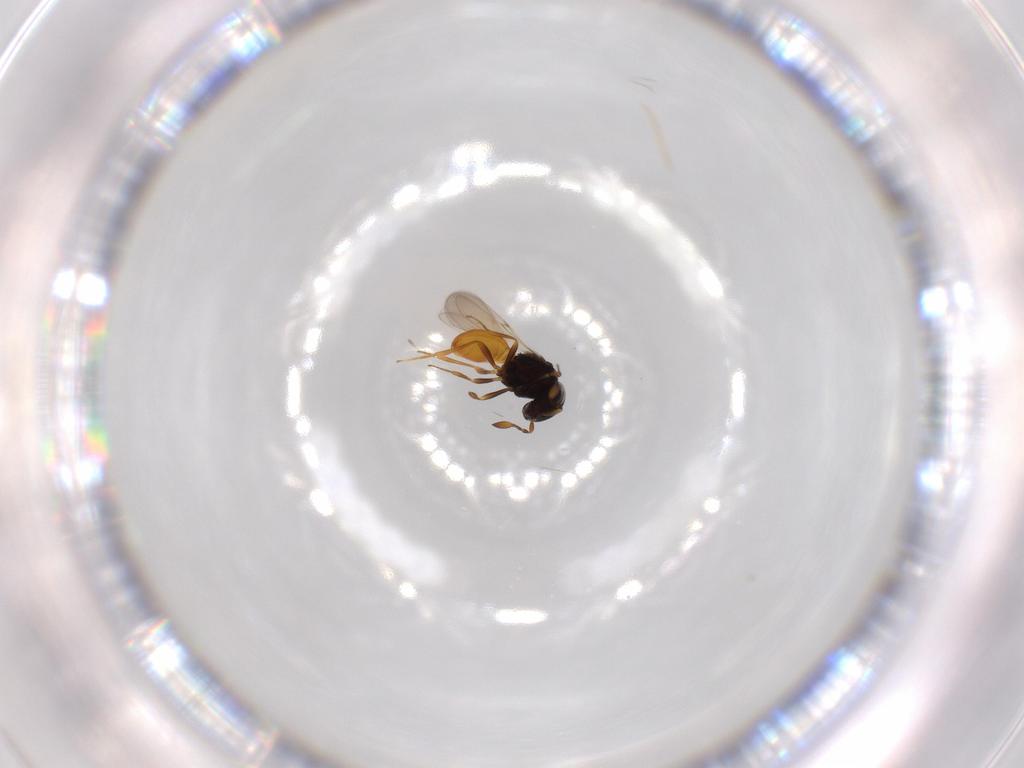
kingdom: Animalia
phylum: Arthropoda
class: Insecta
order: Hymenoptera
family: Scelionidae
